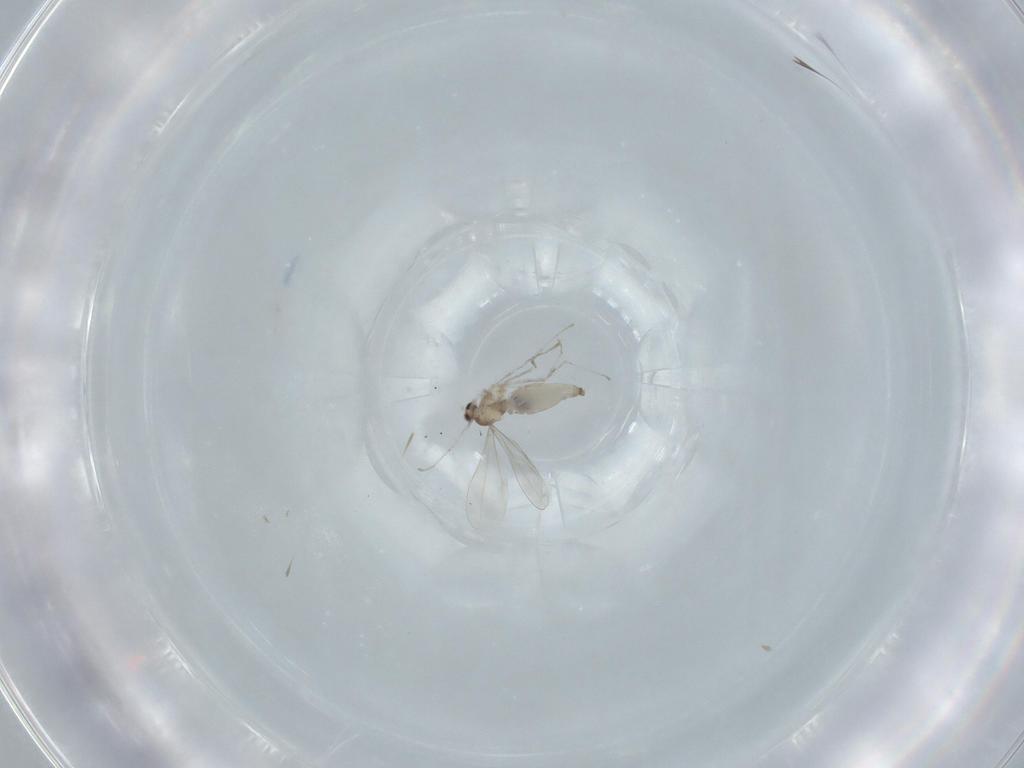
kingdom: Animalia
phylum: Arthropoda
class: Insecta
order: Diptera
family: Cecidomyiidae
